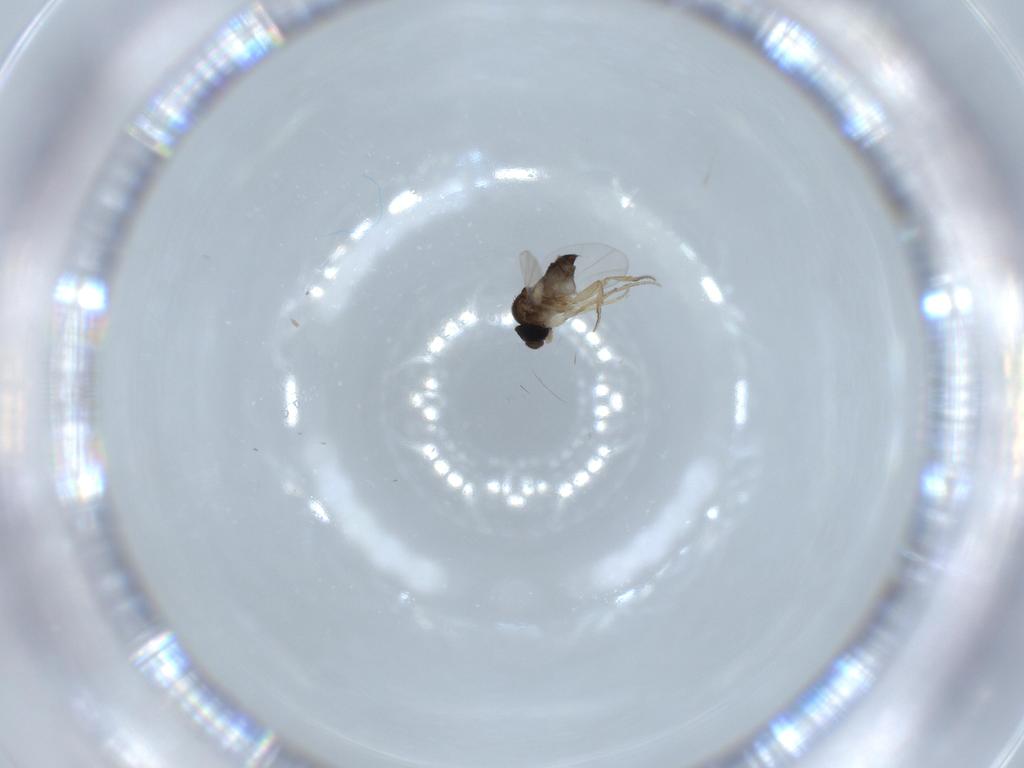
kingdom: Animalia
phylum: Arthropoda
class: Insecta
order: Diptera
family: Phoridae
